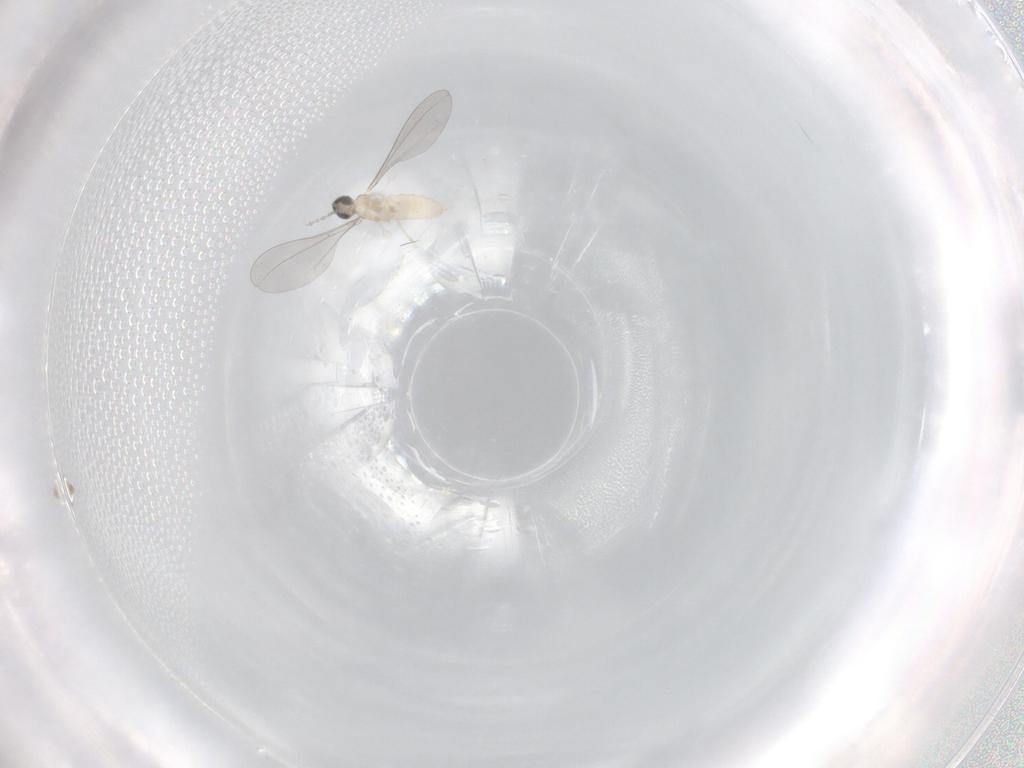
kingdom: Animalia
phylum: Arthropoda
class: Insecta
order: Diptera
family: Cecidomyiidae
